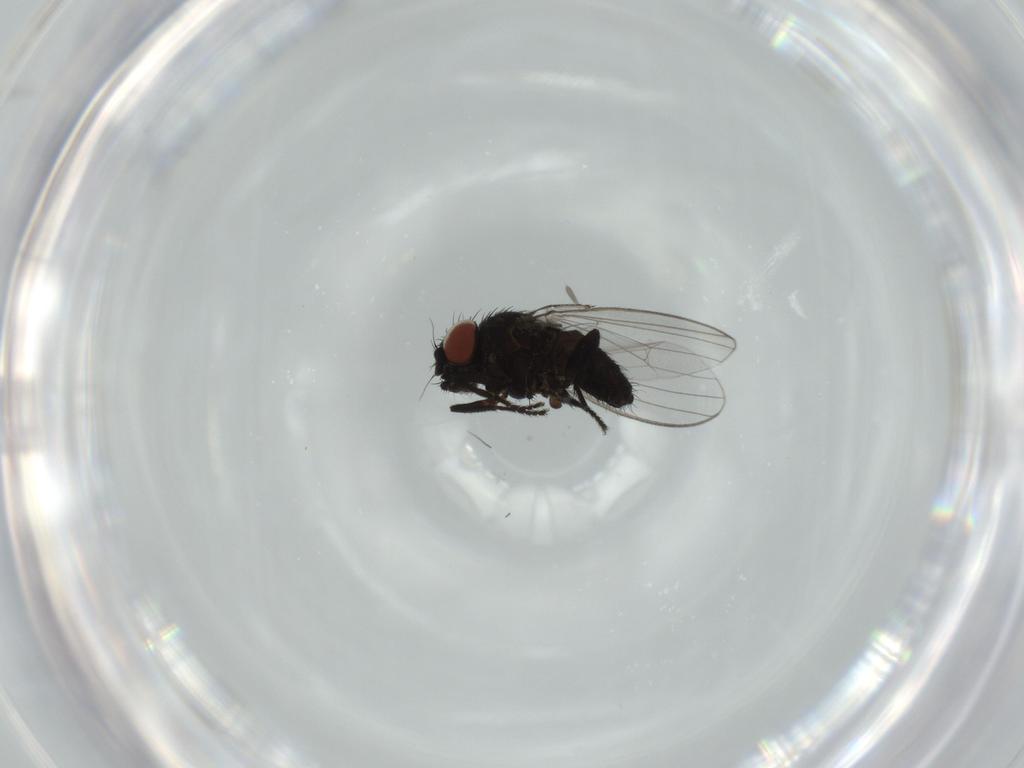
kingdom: Animalia
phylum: Arthropoda
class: Insecta
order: Diptera
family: Milichiidae
